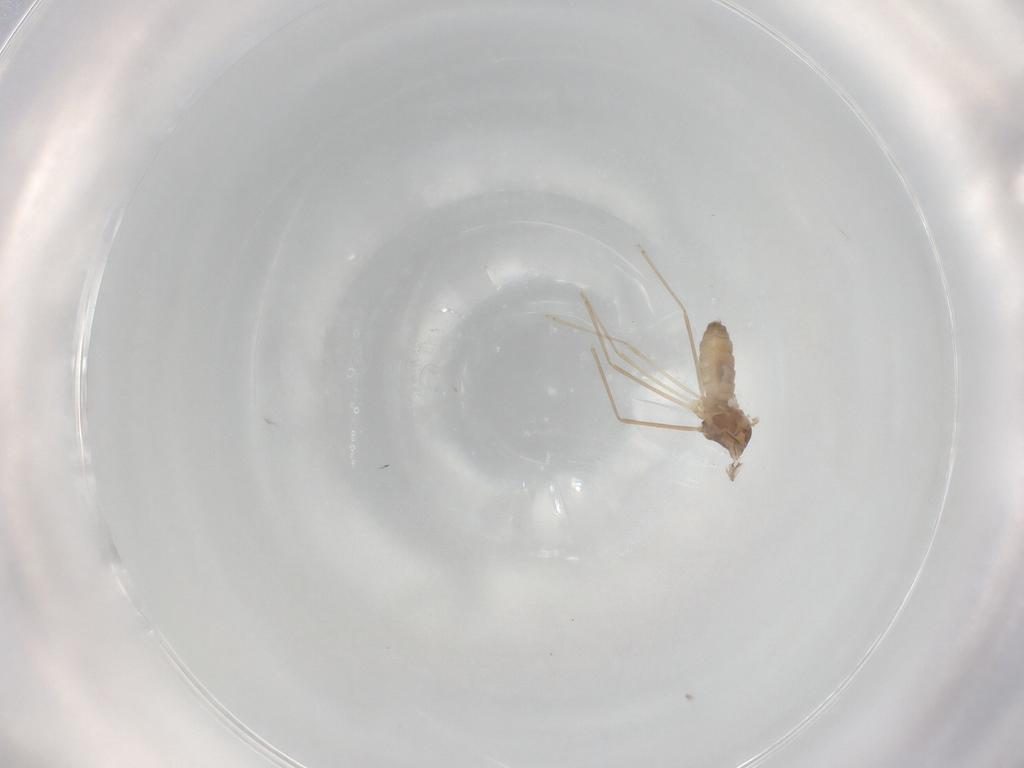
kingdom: Animalia
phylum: Arthropoda
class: Insecta
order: Diptera
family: Cecidomyiidae
